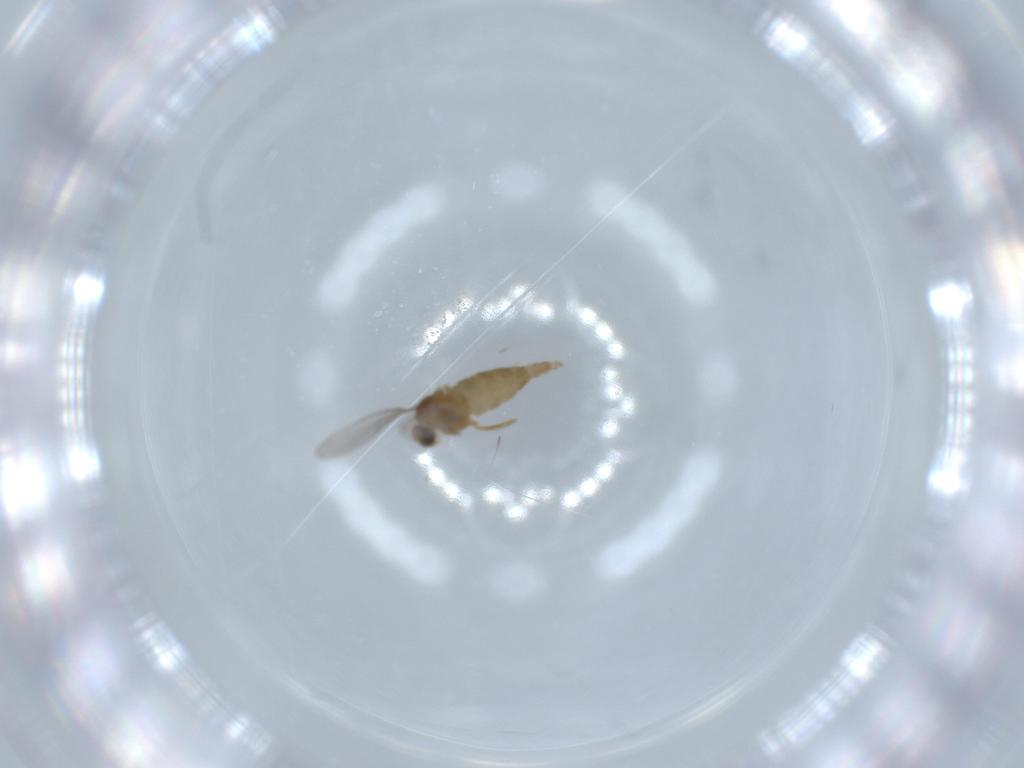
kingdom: Animalia
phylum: Arthropoda
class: Insecta
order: Diptera
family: Cecidomyiidae
